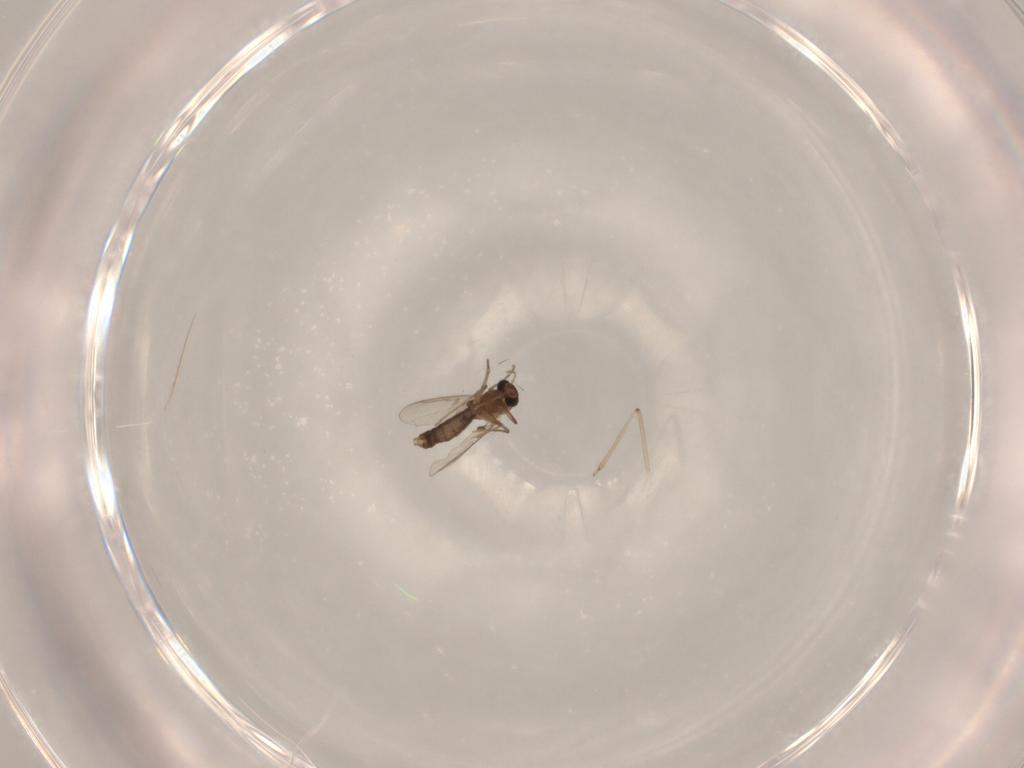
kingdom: Animalia
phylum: Arthropoda
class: Insecta
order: Diptera
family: Chironomidae
